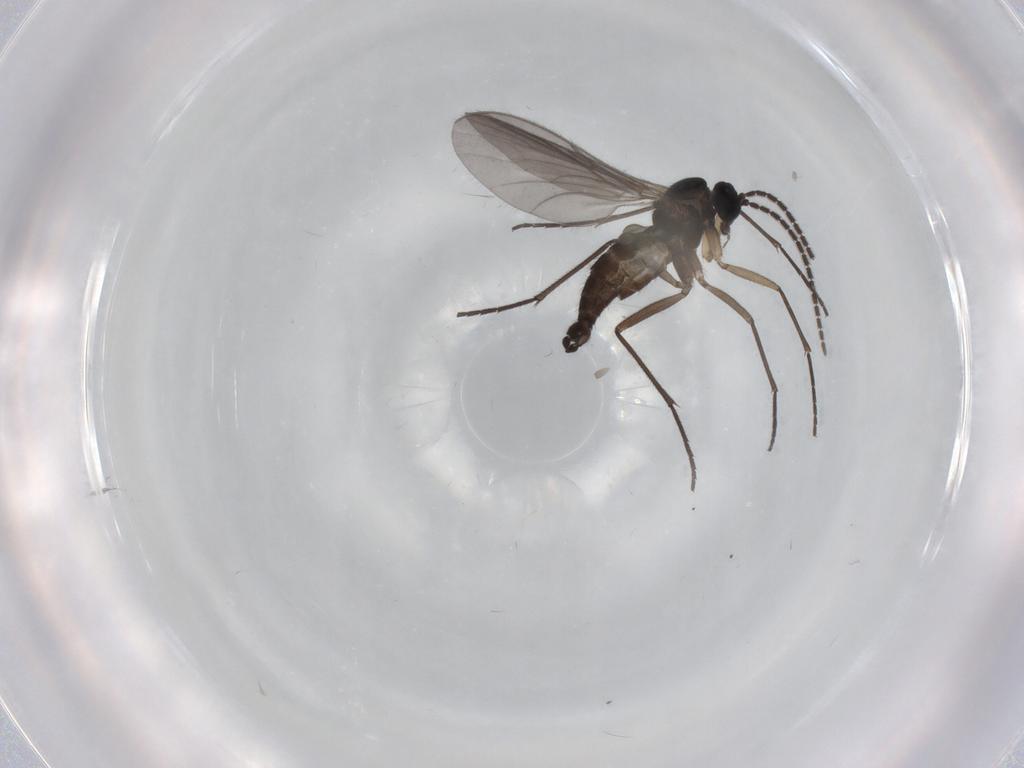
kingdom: Animalia
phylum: Arthropoda
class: Insecta
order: Diptera
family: Sciaridae
